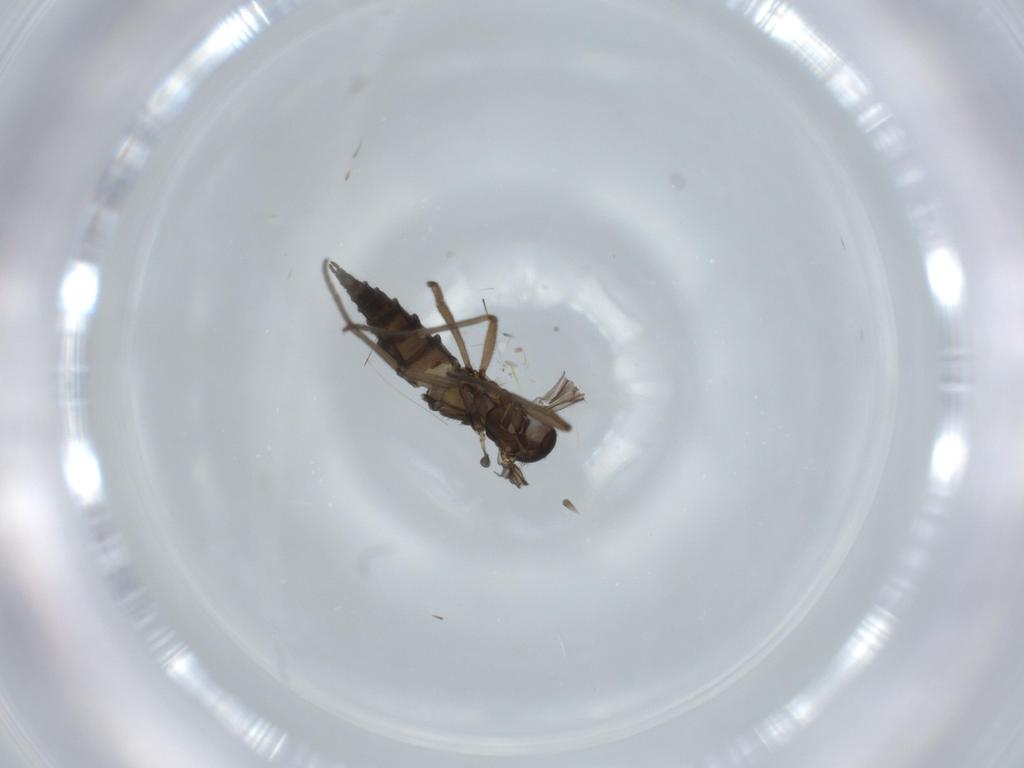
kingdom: Animalia
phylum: Arthropoda
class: Insecta
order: Diptera
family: Sciaridae
